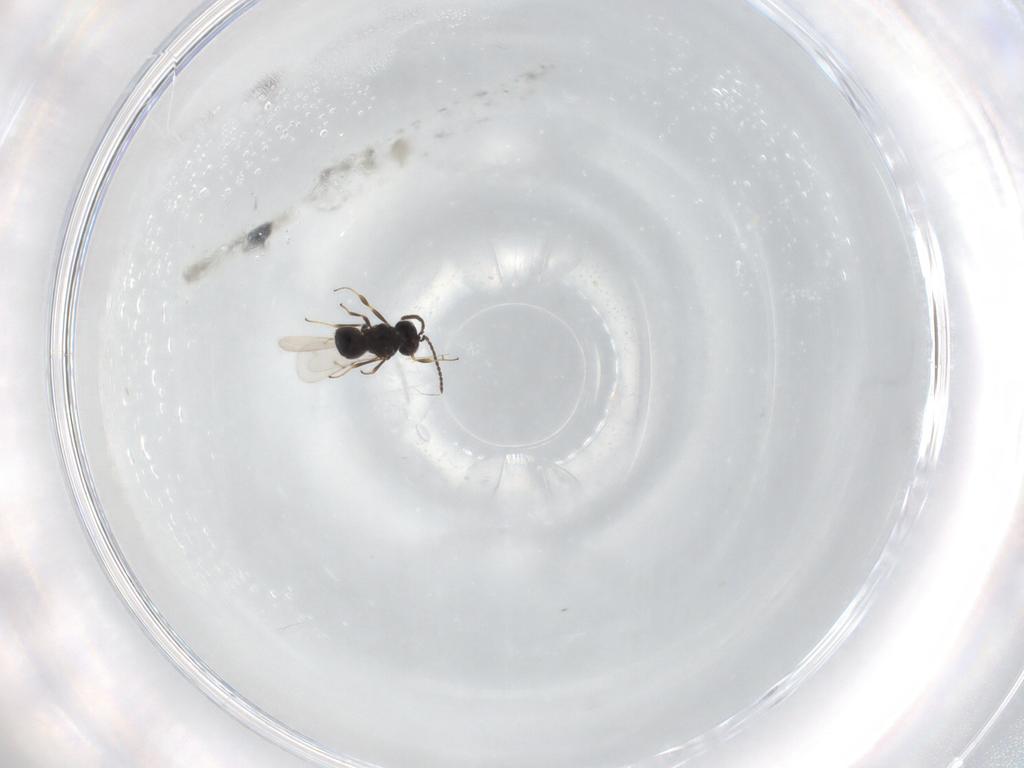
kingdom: Animalia
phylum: Arthropoda
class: Insecta
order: Hymenoptera
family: Scelionidae
